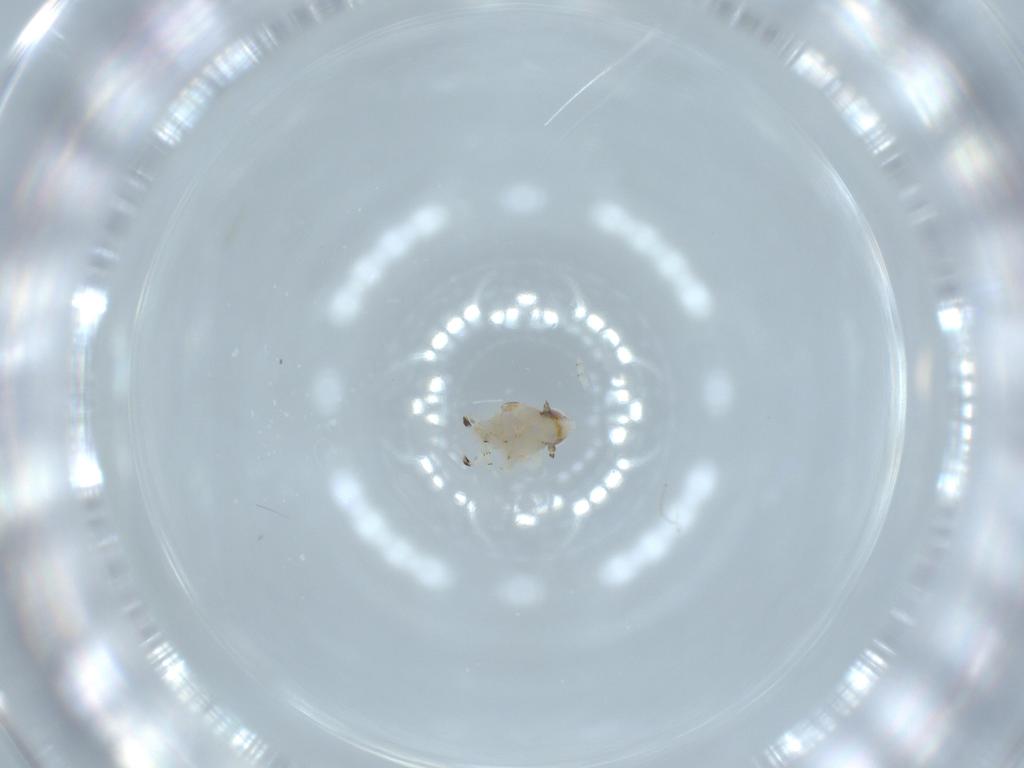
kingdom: Animalia
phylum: Arthropoda
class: Insecta
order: Hemiptera
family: Nogodinidae
